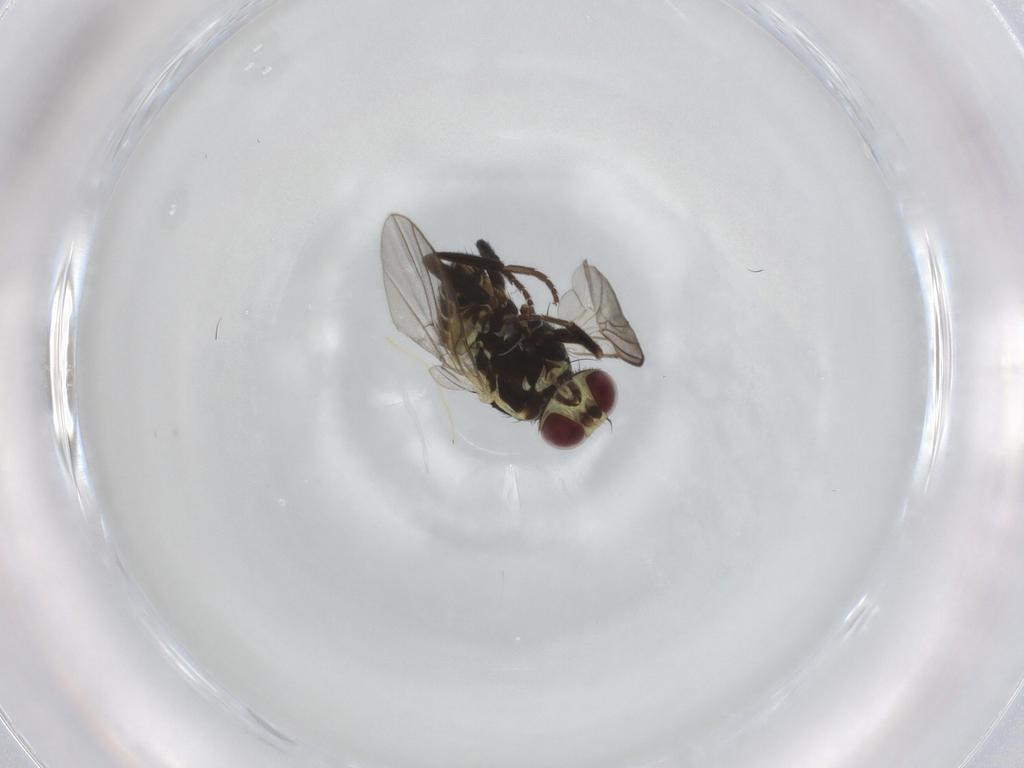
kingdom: Animalia
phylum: Arthropoda
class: Insecta
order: Diptera
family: Agromyzidae
